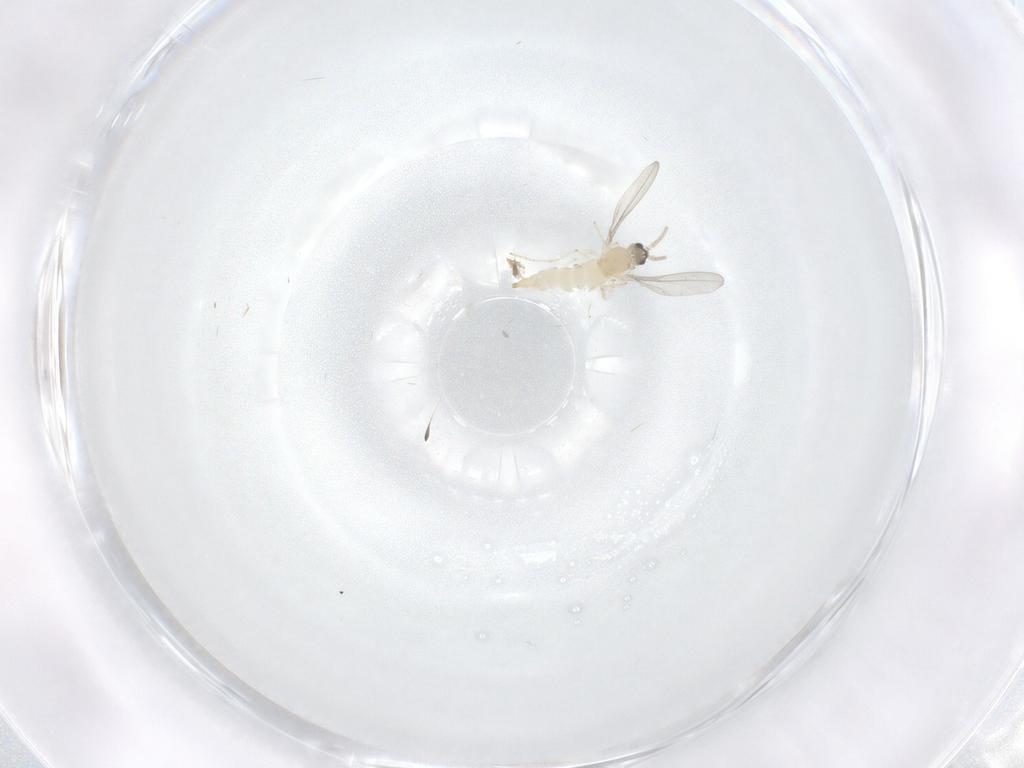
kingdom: Animalia
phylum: Arthropoda
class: Insecta
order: Diptera
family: Cecidomyiidae
